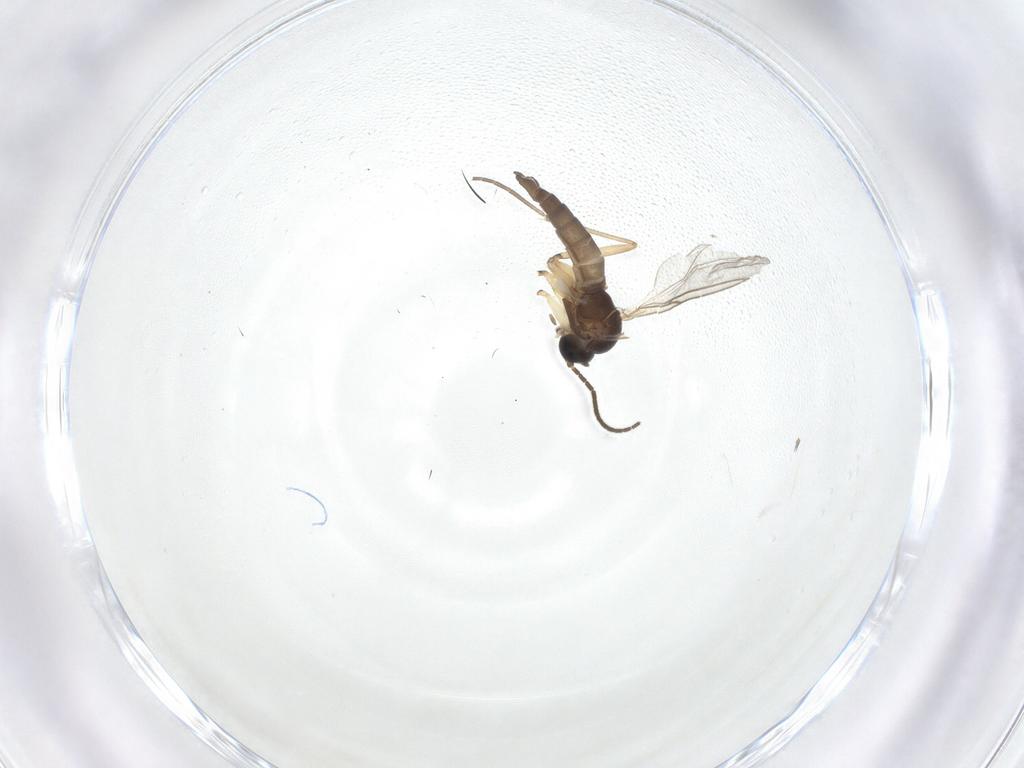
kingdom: Animalia
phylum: Arthropoda
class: Insecta
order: Diptera
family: Sciaridae
